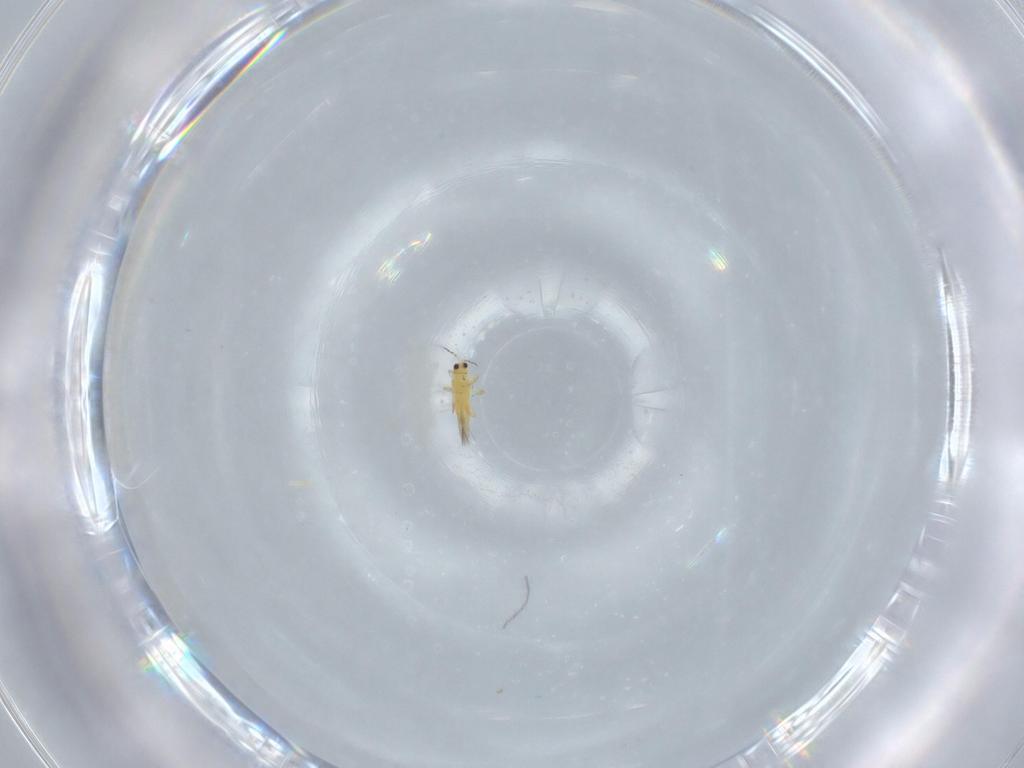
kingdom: Animalia
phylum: Arthropoda
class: Insecta
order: Thysanoptera
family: Thripidae
